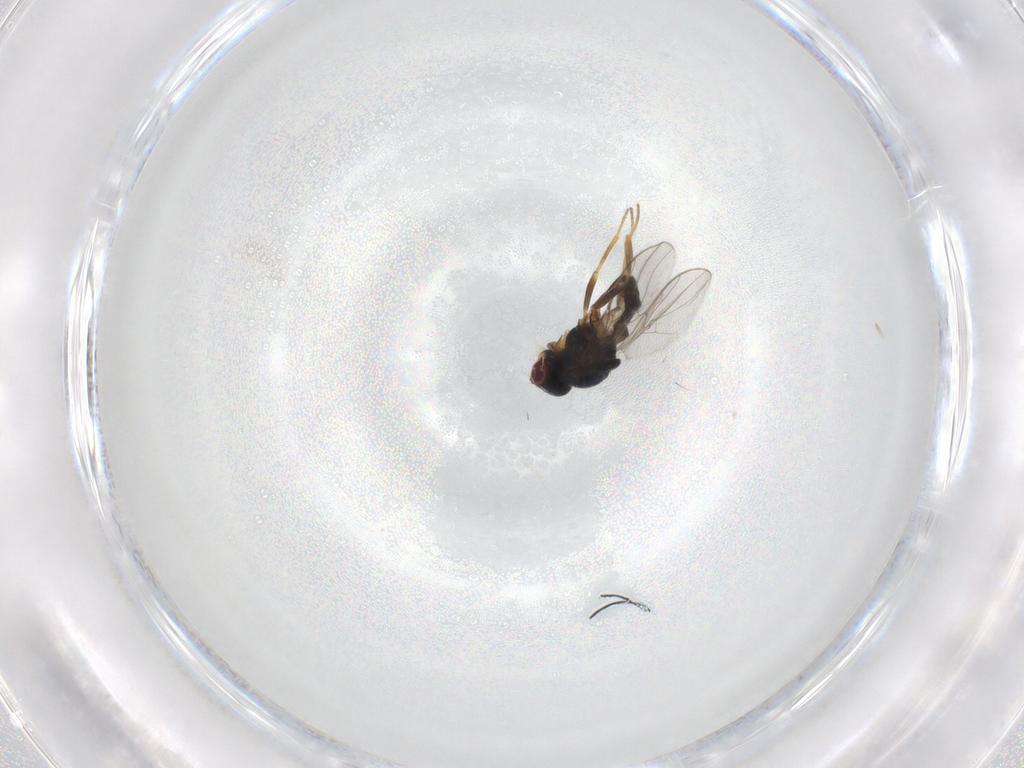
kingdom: Animalia
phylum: Arthropoda
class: Insecta
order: Diptera
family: Chloropidae
